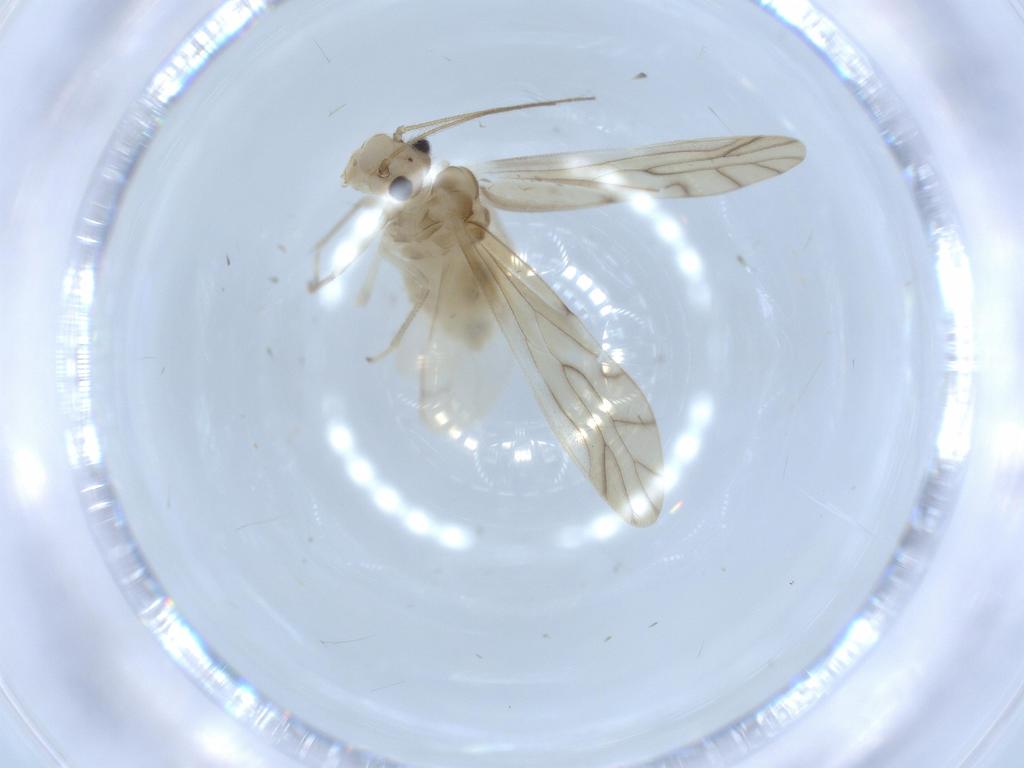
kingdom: Animalia
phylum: Arthropoda
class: Insecta
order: Psocodea
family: Caeciliusidae
